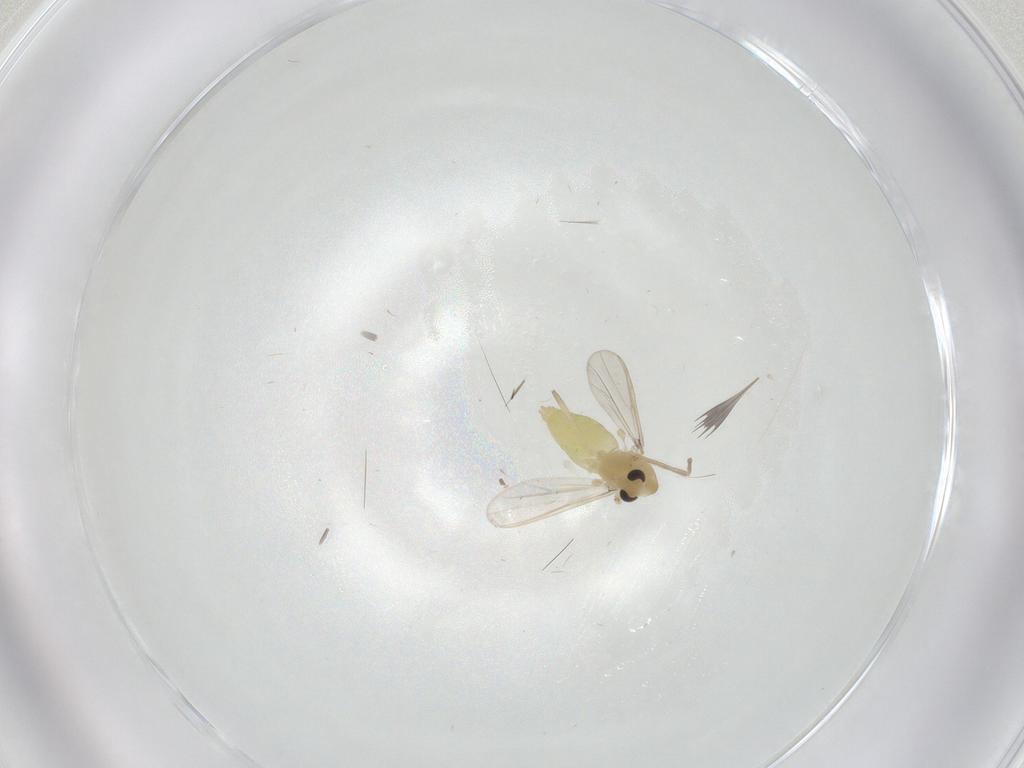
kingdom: Animalia
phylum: Arthropoda
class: Insecta
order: Diptera
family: Chironomidae
